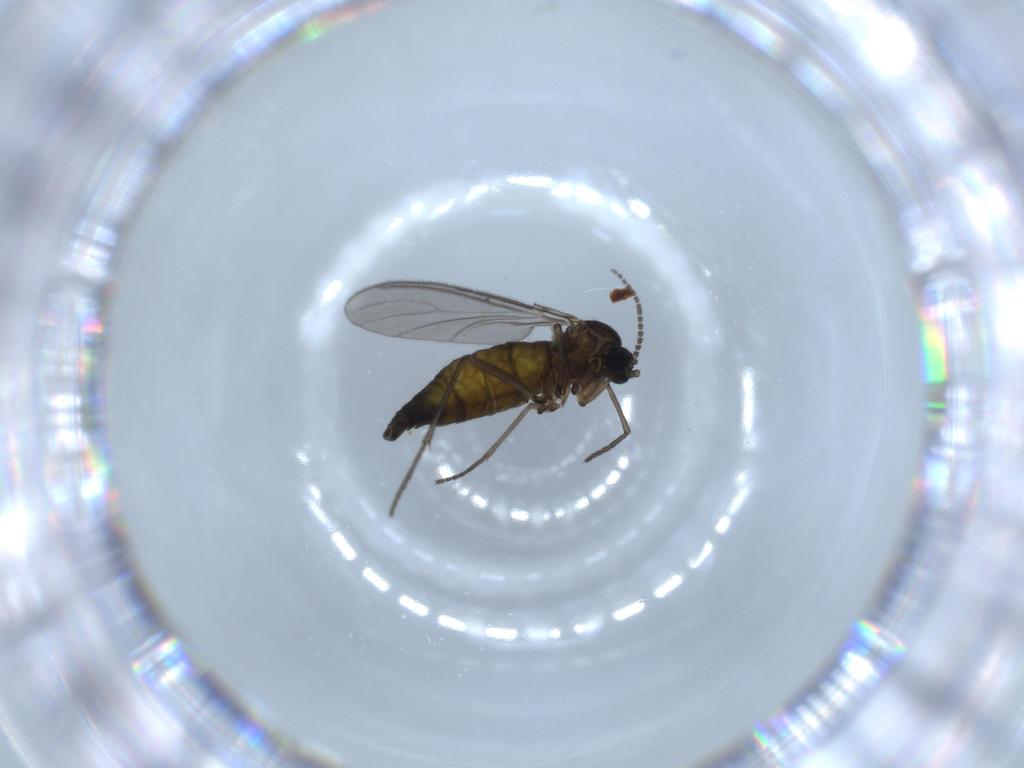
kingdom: Animalia
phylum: Arthropoda
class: Insecta
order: Diptera
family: Sciaridae
